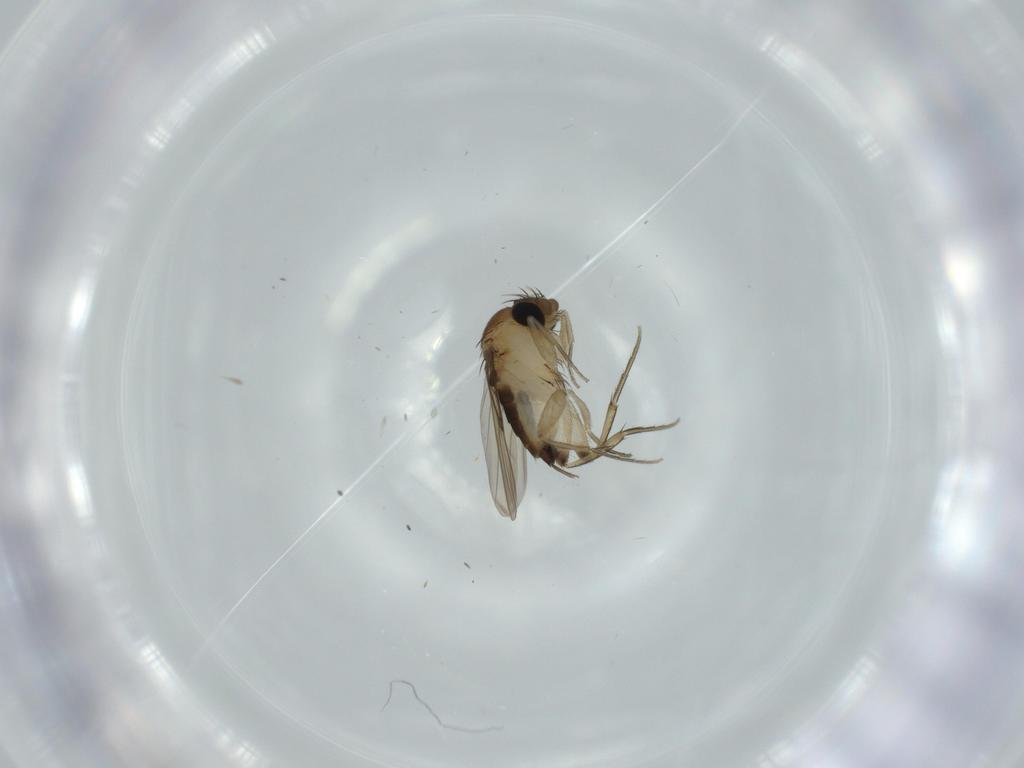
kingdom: Animalia
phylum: Arthropoda
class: Insecta
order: Diptera
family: Phoridae
